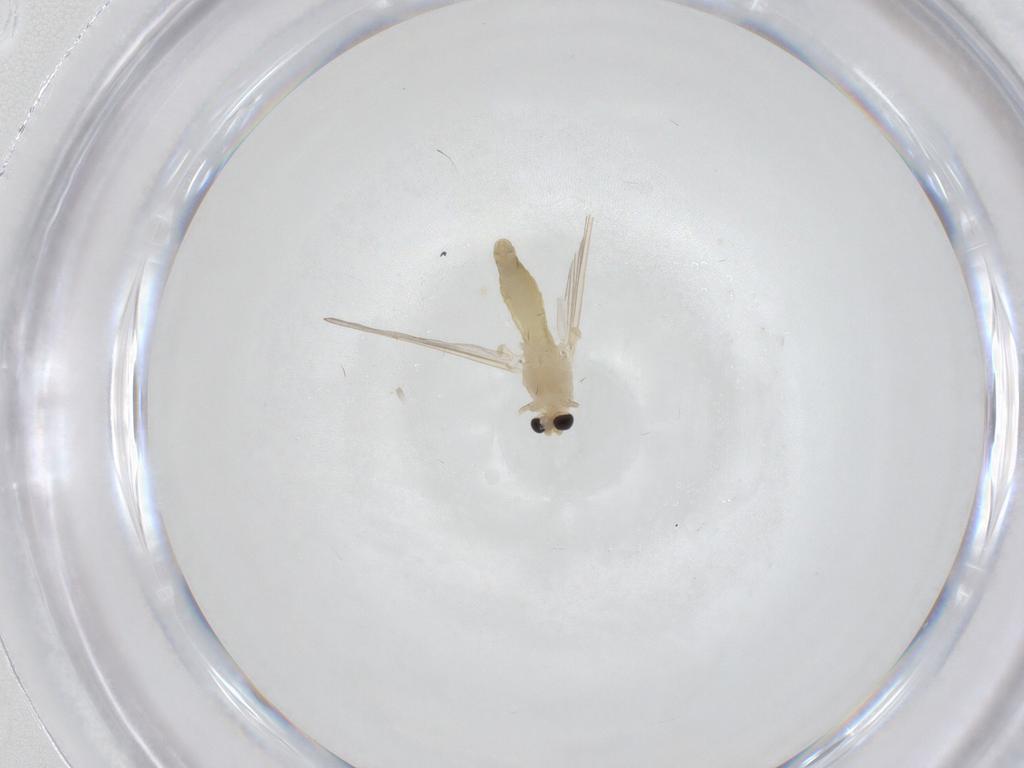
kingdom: Animalia
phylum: Arthropoda
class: Insecta
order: Diptera
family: Chironomidae
